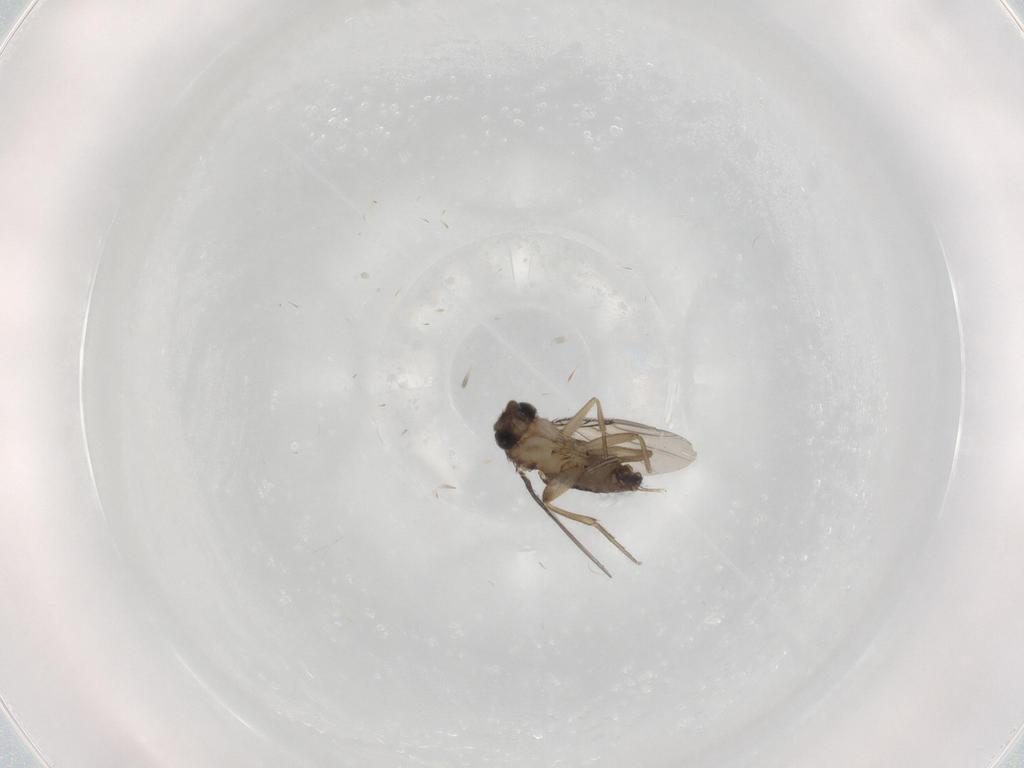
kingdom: Animalia
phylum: Arthropoda
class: Insecta
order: Diptera
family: Phoridae
